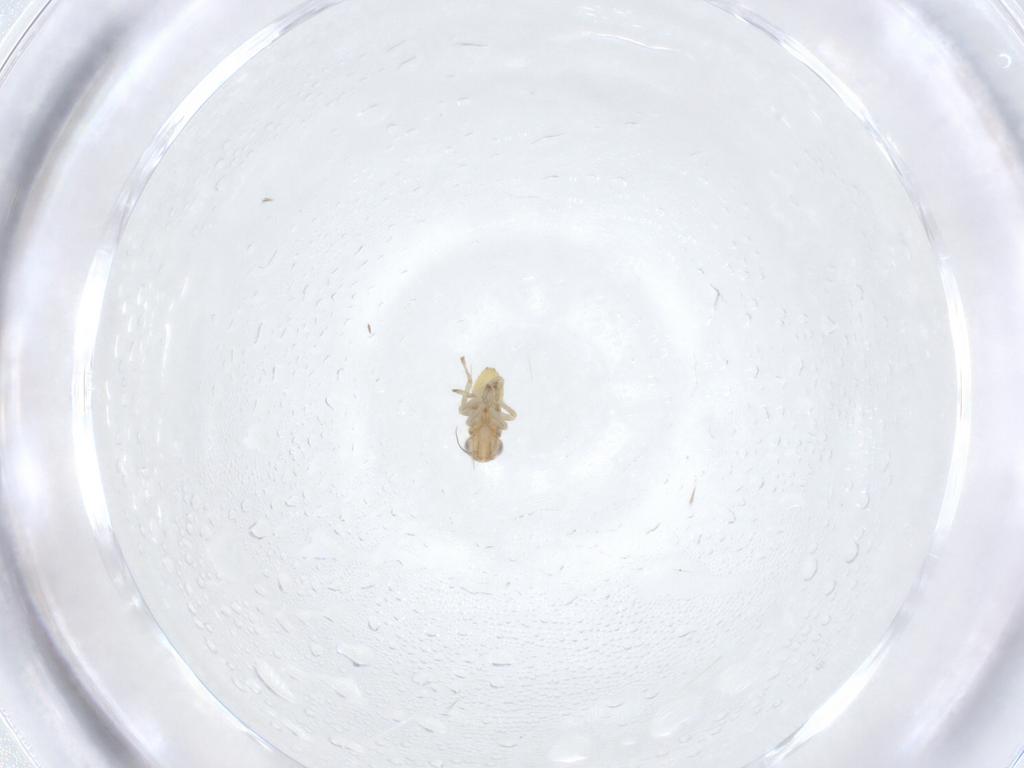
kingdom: Animalia
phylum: Arthropoda
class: Insecta
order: Hemiptera
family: Cicadellidae
